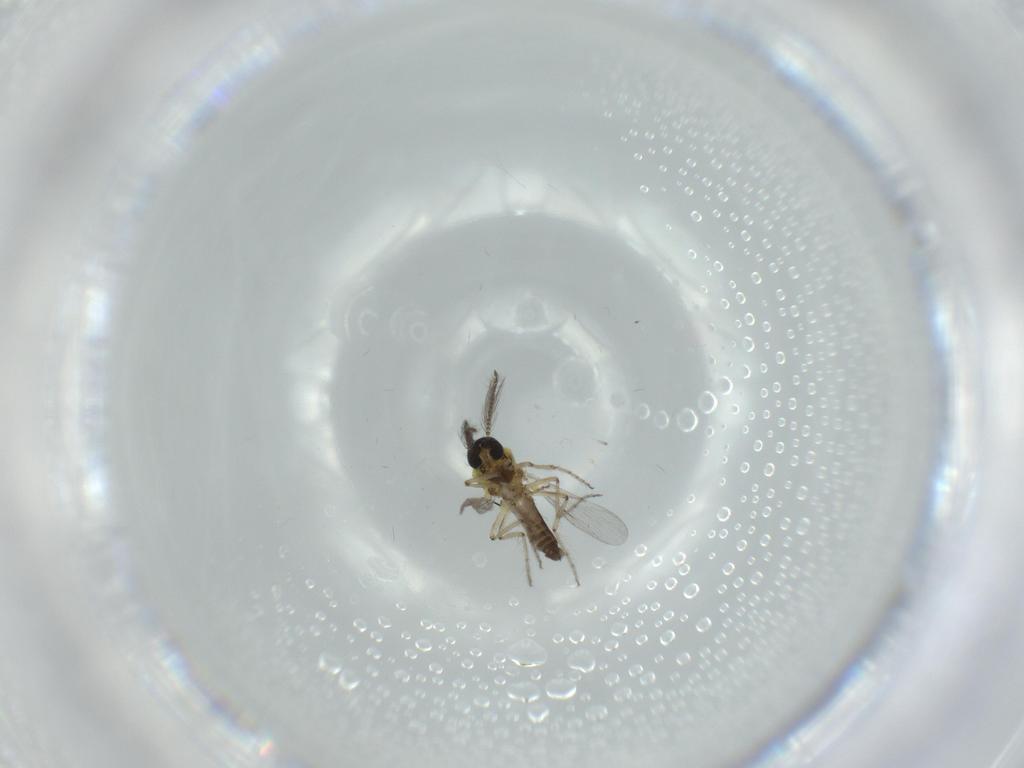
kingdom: Animalia
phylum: Arthropoda
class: Insecta
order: Diptera
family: Ceratopogonidae
